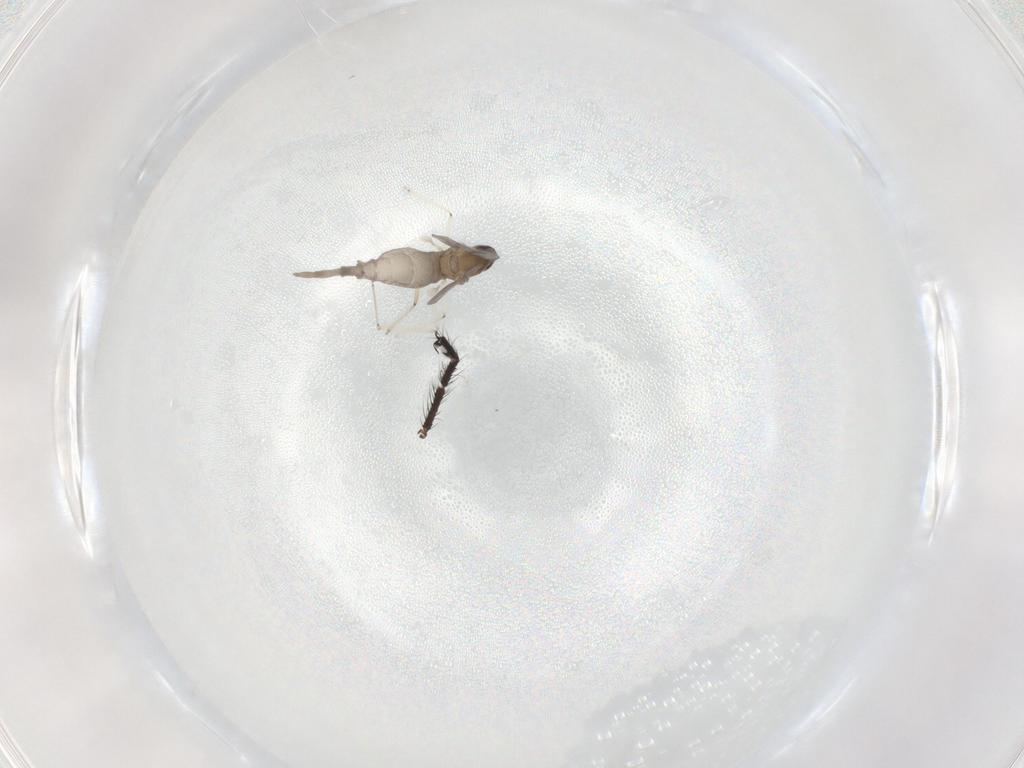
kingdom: Animalia
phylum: Arthropoda
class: Insecta
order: Diptera
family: Cecidomyiidae
